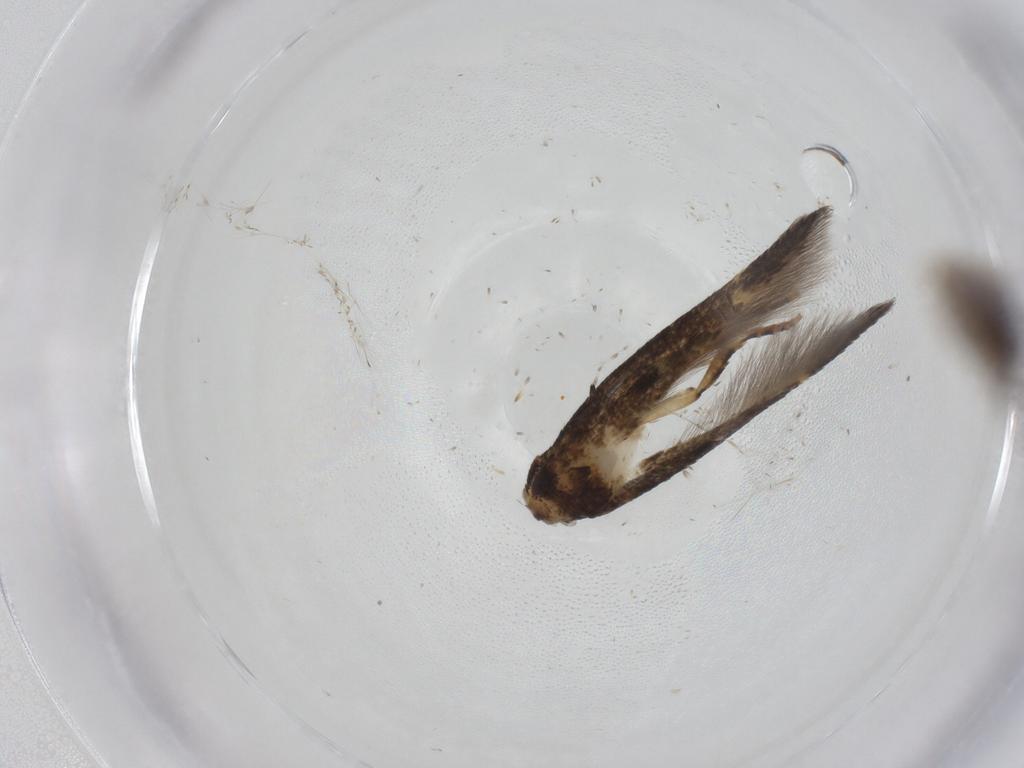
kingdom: Animalia
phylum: Arthropoda
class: Insecta
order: Lepidoptera
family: Cosmopterigidae
